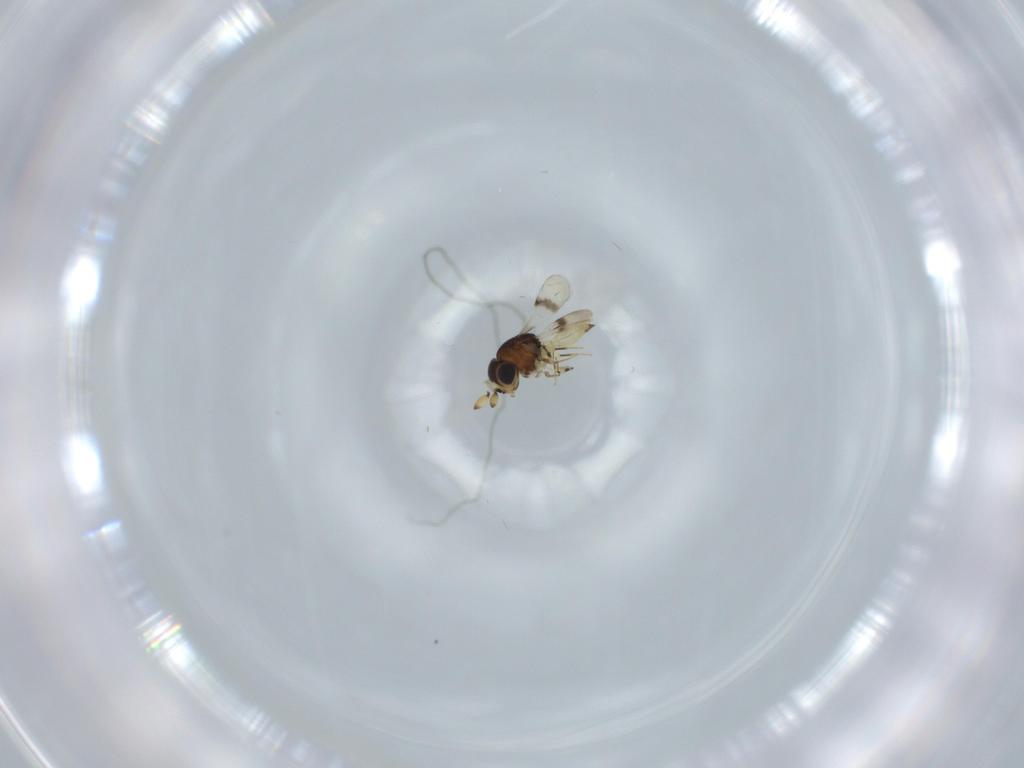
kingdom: Animalia
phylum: Arthropoda
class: Insecta
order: Hymenoptera
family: Scelionidae
